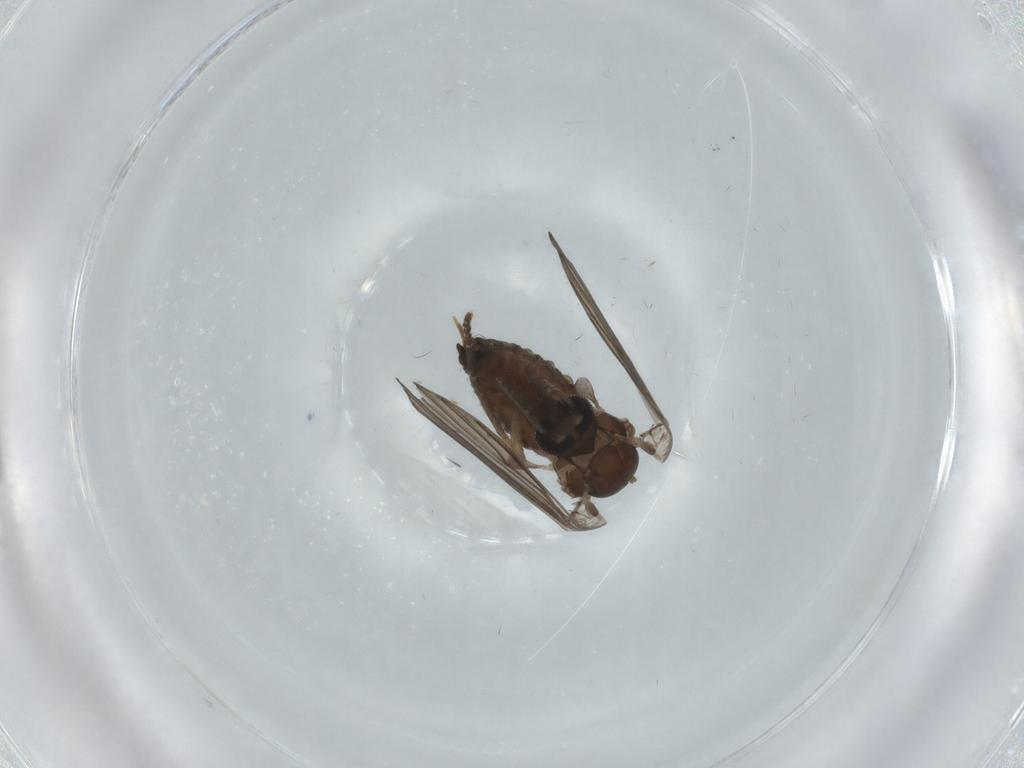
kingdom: Animalia
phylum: Arthropoda
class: Insecta
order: Diptera
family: Psychodidae
